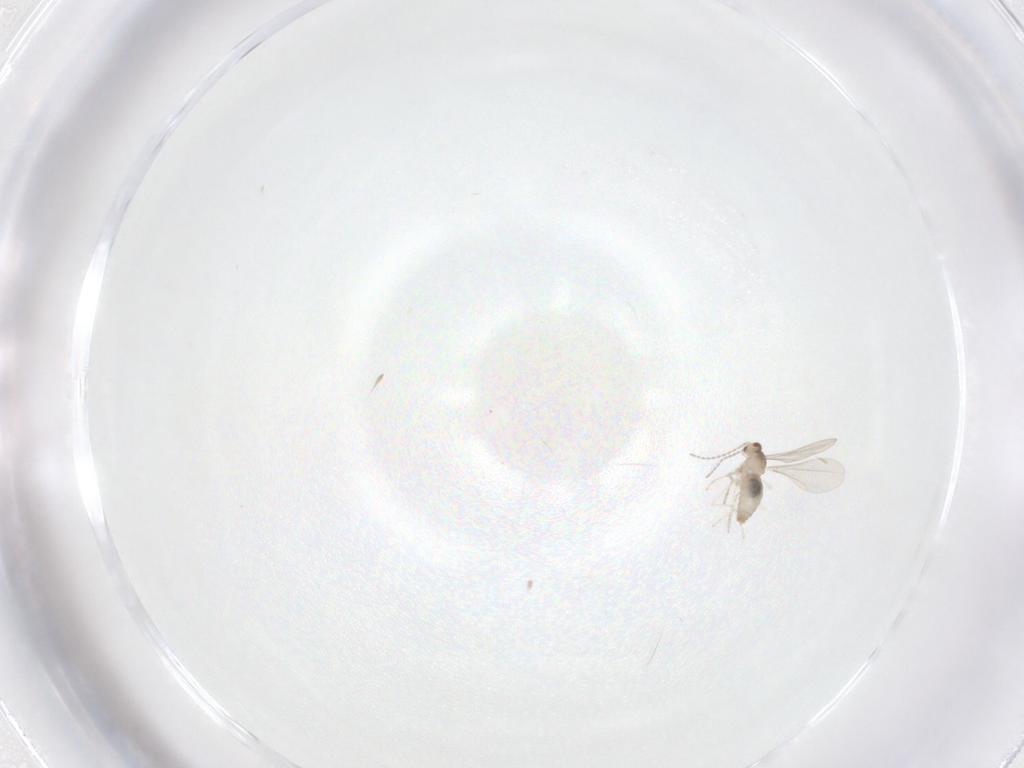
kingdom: Animalia
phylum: Arthropoda
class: Insecta
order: Diptera
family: Cecidomyiidae
